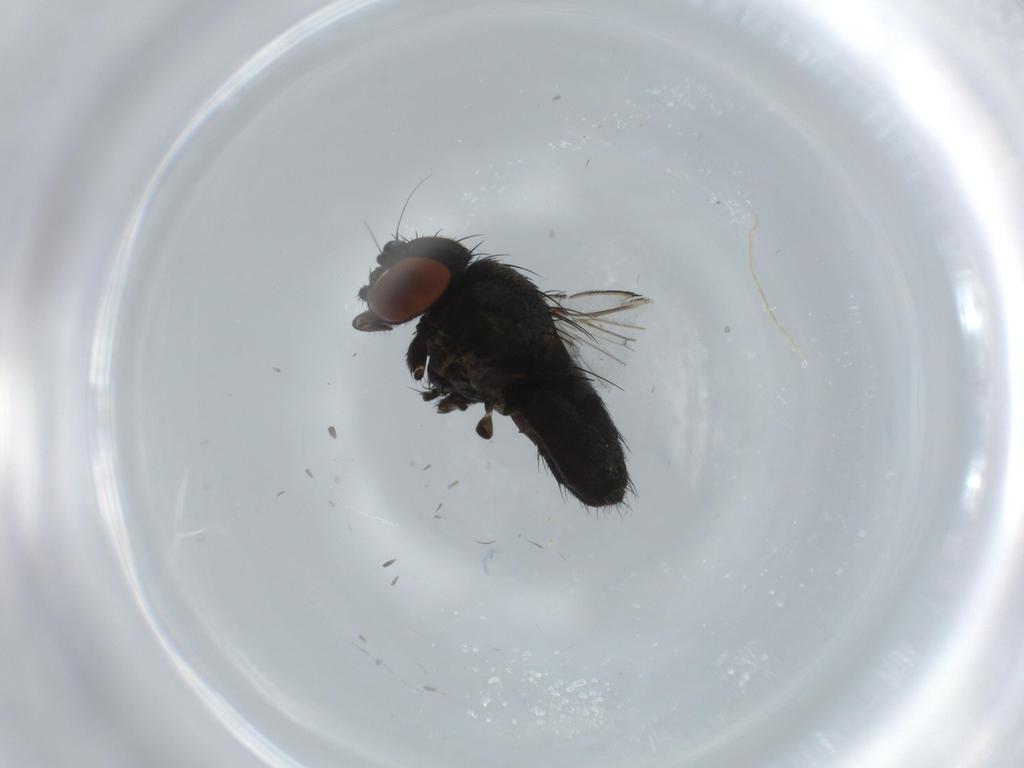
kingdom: Animalia
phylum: Arthropoda
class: Insecta
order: Diptera
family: Milichiidae
